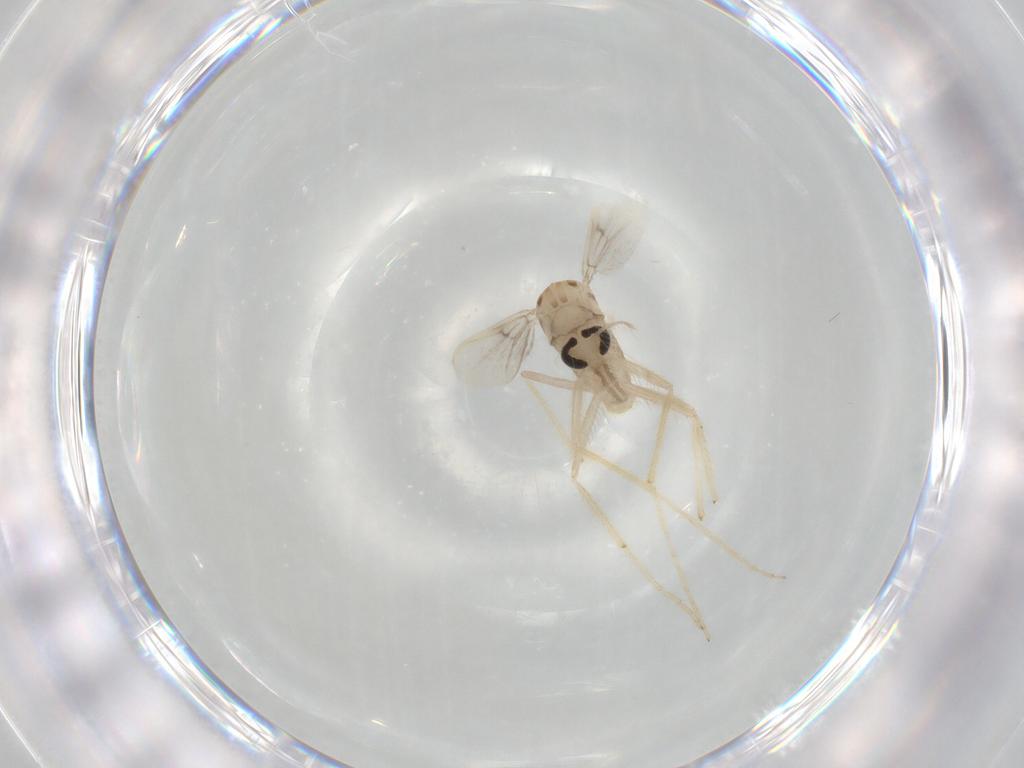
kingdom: Animalia
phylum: Arthropoda
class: Insecta
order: Diptera
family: Chironomidae
